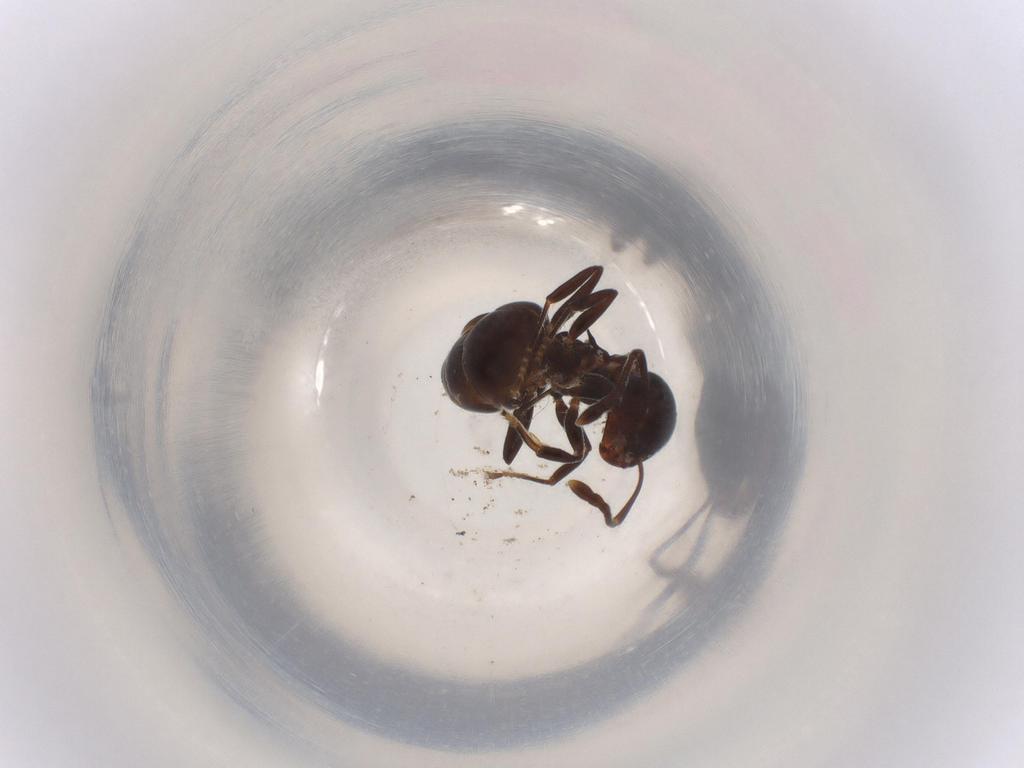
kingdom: Animalia
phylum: Arthropoda
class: Insecta
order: Hymenoptera
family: Formicidae
